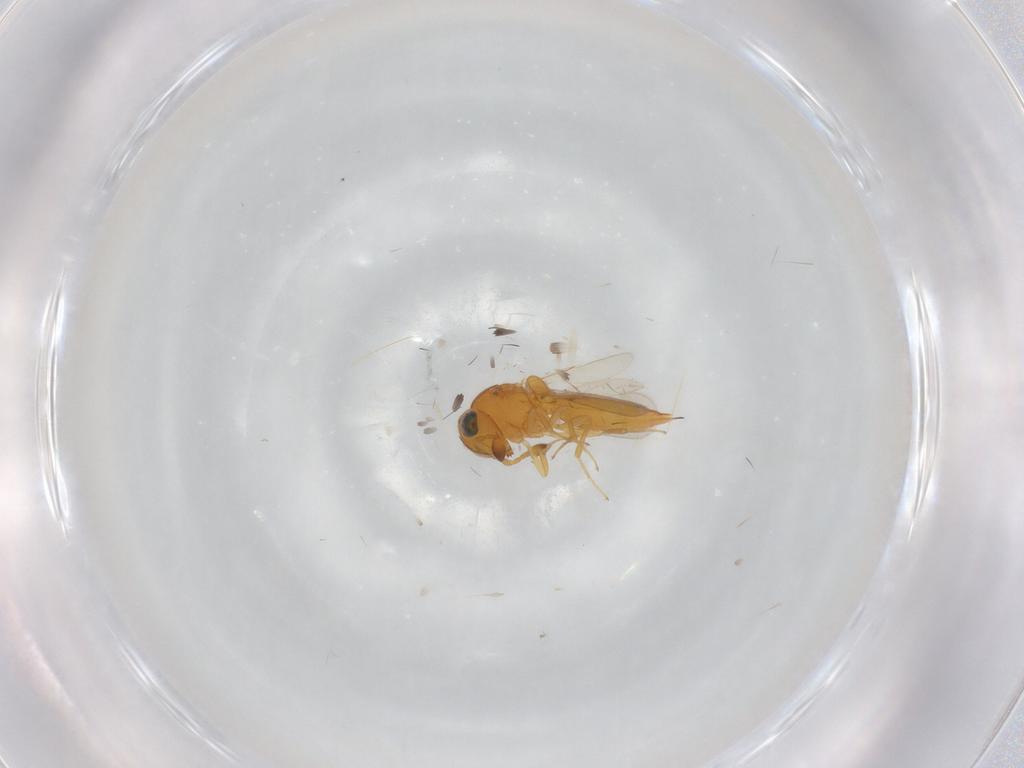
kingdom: Animalia
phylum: Arthropoda
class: Insecta
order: Hymenoptera
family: Scelionidae
